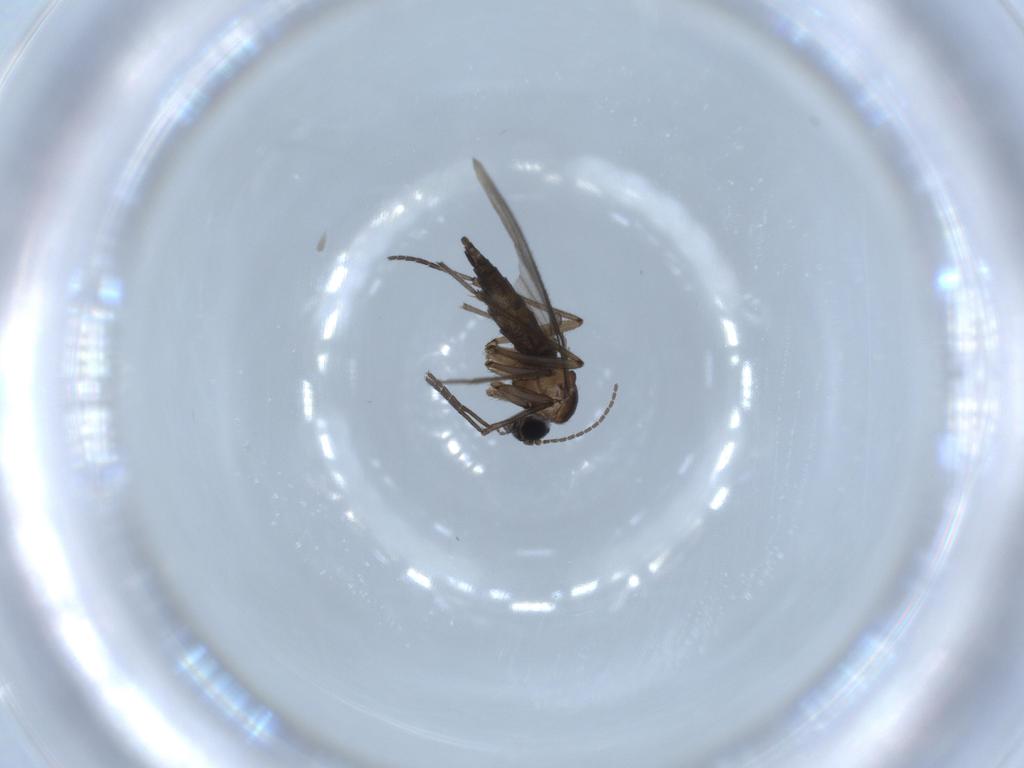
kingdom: Animalia
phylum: Arthropoda
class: Insecta
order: Diptera
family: Sciaridae
